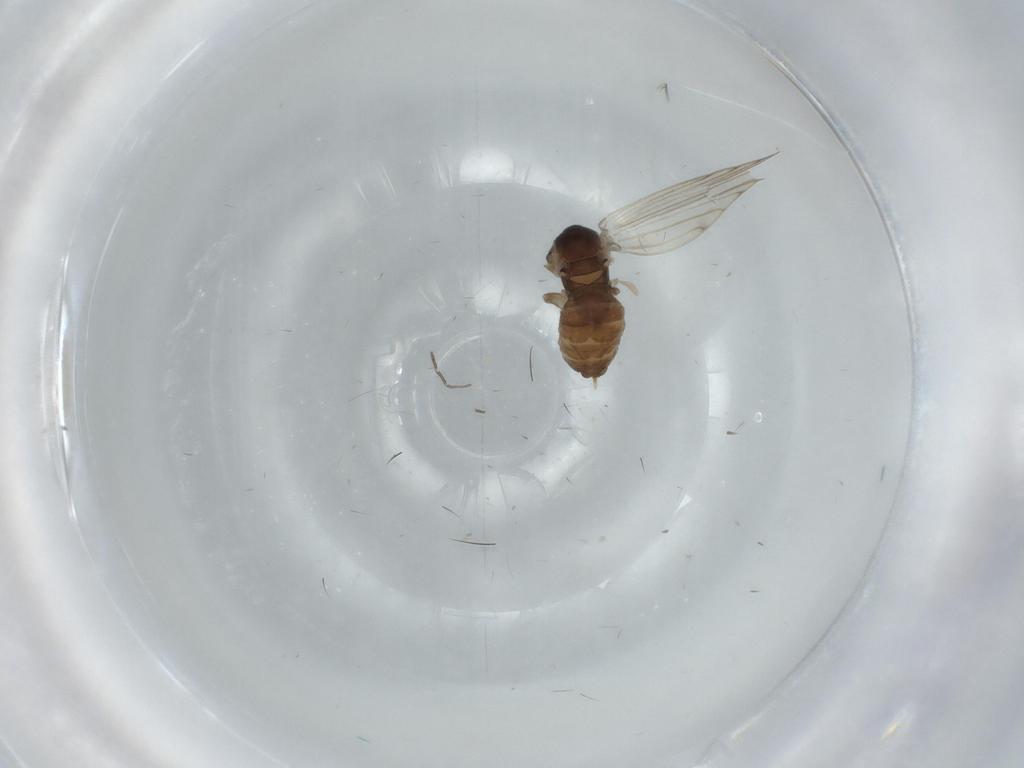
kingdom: Animalia
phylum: Arthropoda
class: Insecta
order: Diptera
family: Psychodidae
